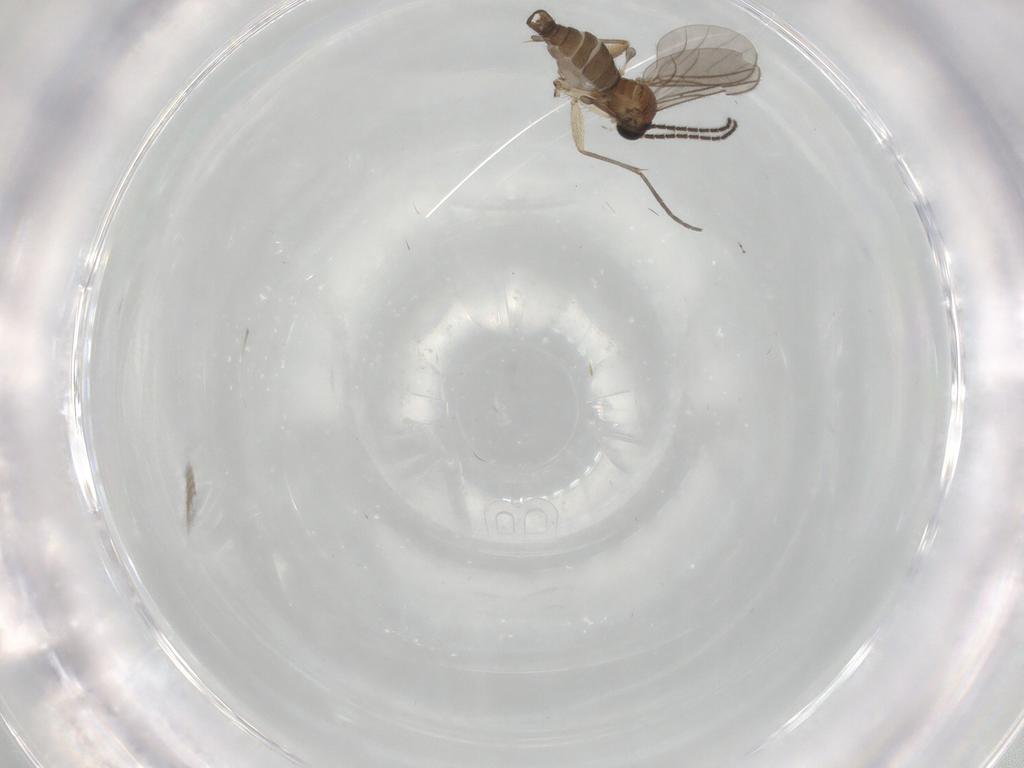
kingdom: Animalia
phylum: Arthropoda
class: Insecta
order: Diptera
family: Sciaridae
